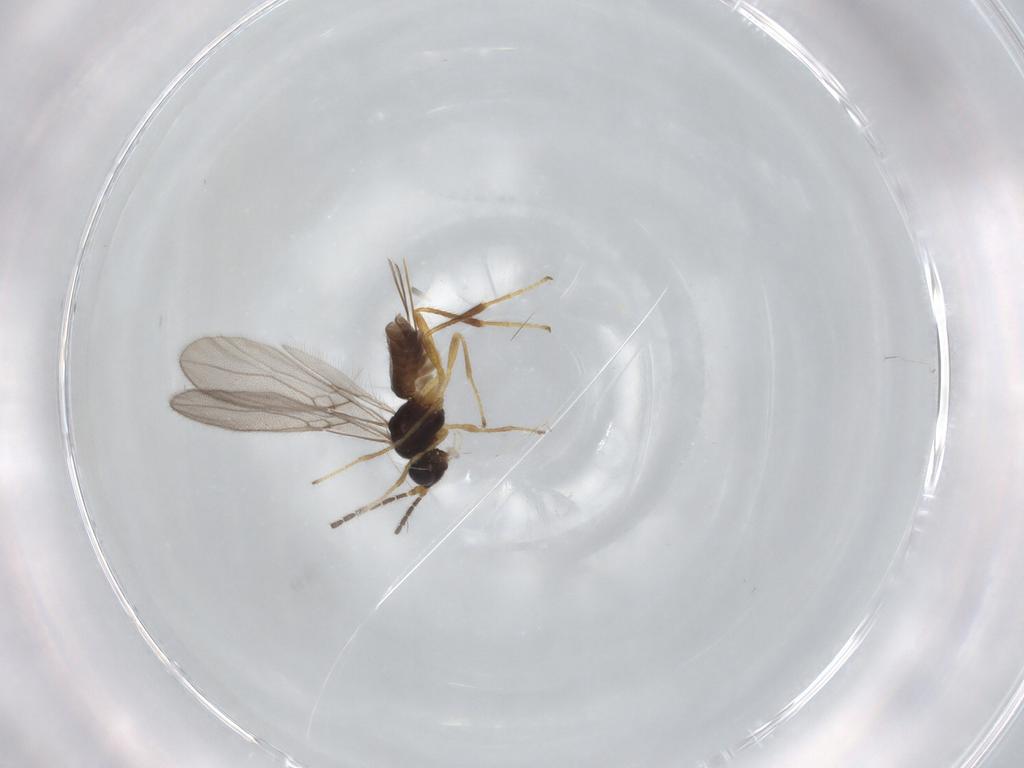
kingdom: Animalia
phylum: Arthropoda
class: Insecta
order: Hymenoptera
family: Braconidae
